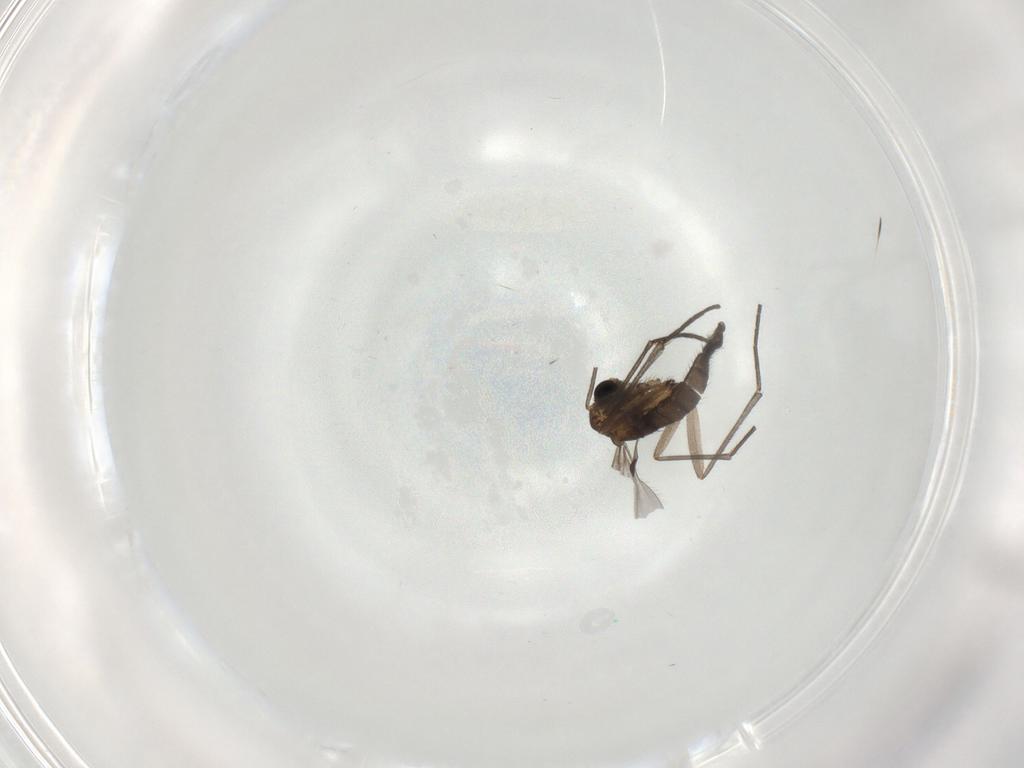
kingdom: Animalia
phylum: Arthropoda
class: Insecta
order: Diptera
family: Sciaridae
